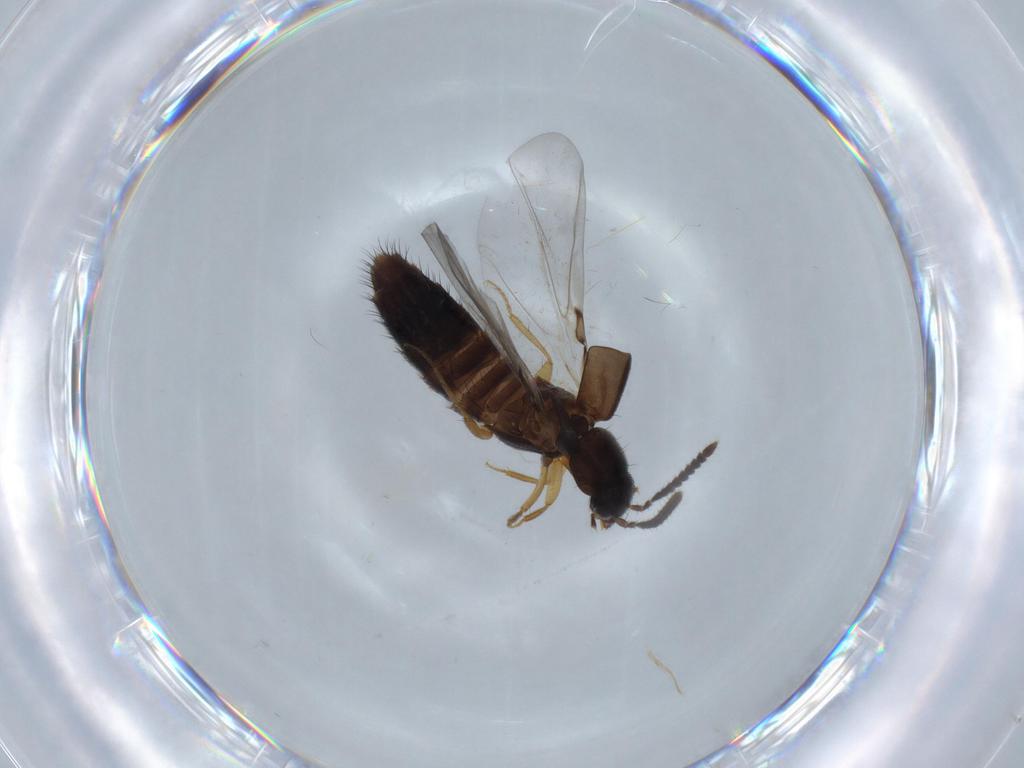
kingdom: Animalia
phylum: Arthropoda
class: Insecta
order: Coleoptera
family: Staphylinidae
